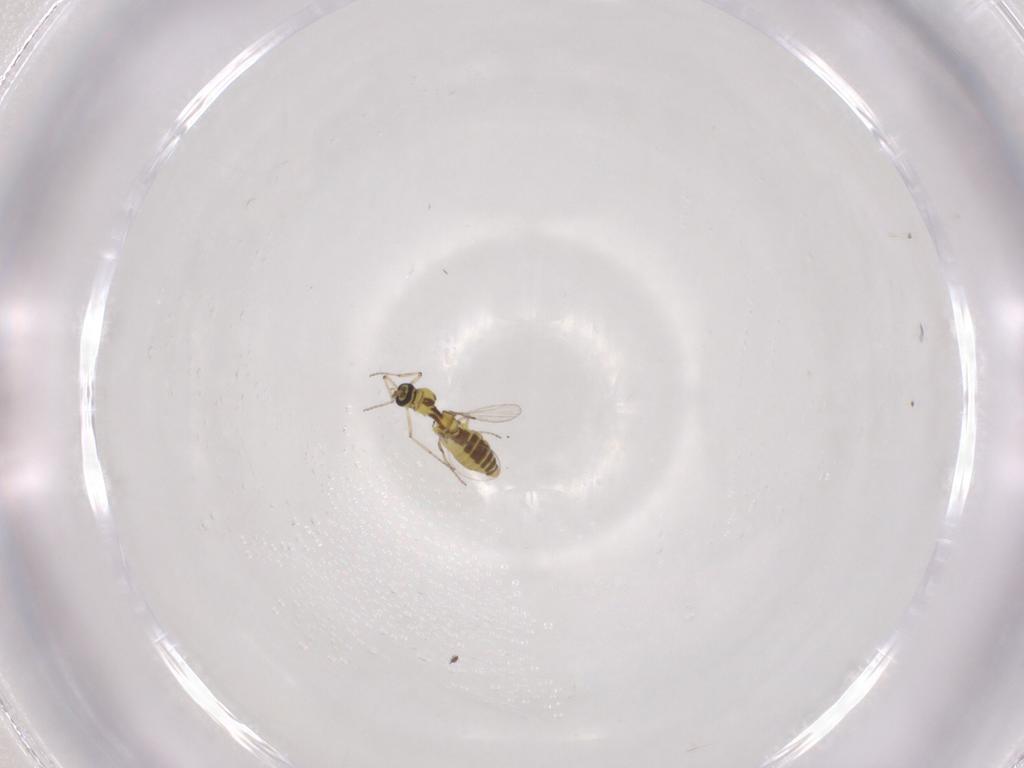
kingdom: Animalia
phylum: Arthropoda
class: Insecta
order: Diptera
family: Ceratopogonidae
